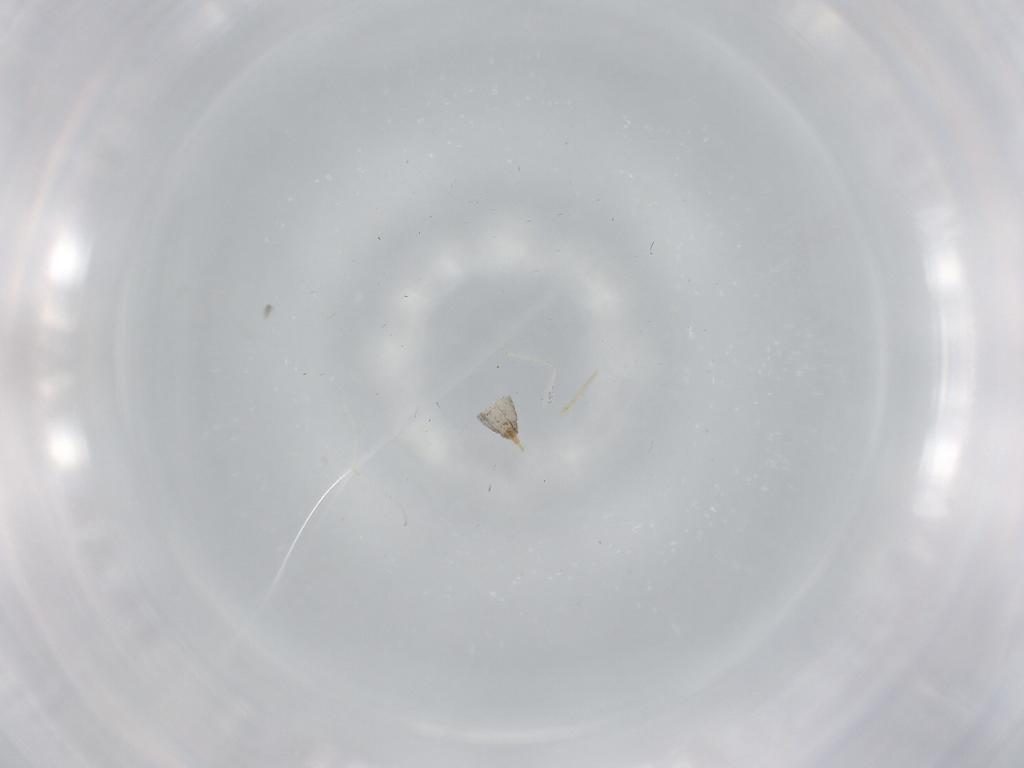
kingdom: Animalia
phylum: Arthropoda
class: Insecta
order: Diptera
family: Cecidomyiidae
